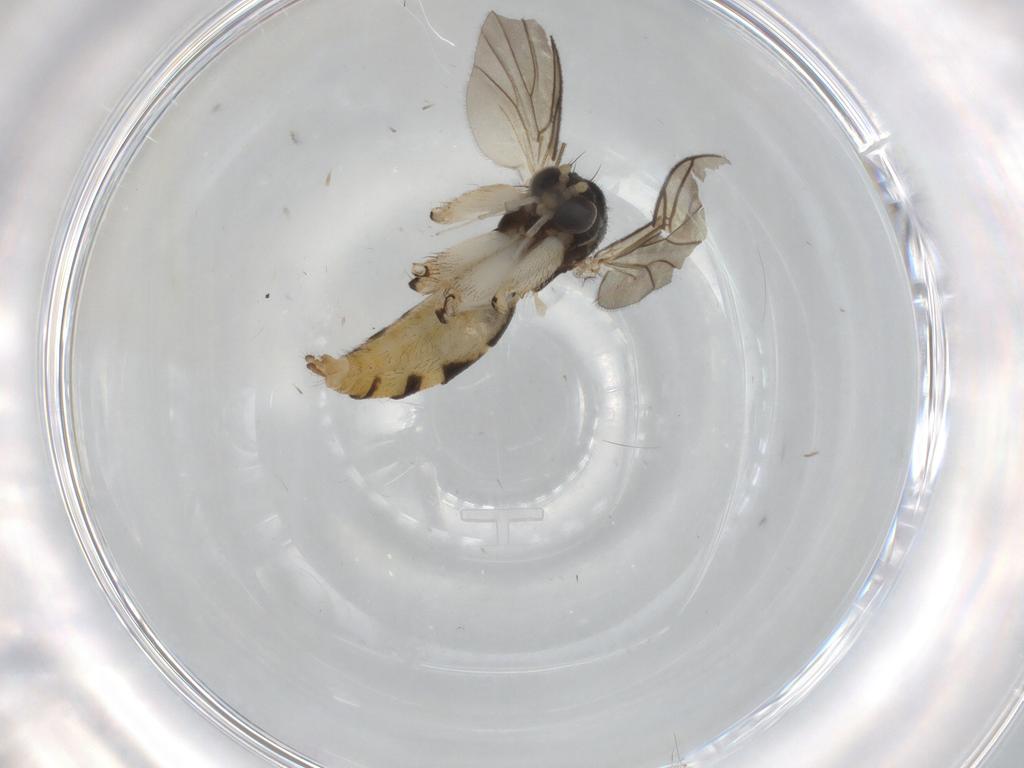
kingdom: Animalia
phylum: Arthropoda
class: Insecta
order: Diptera
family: Mycetophilidae
